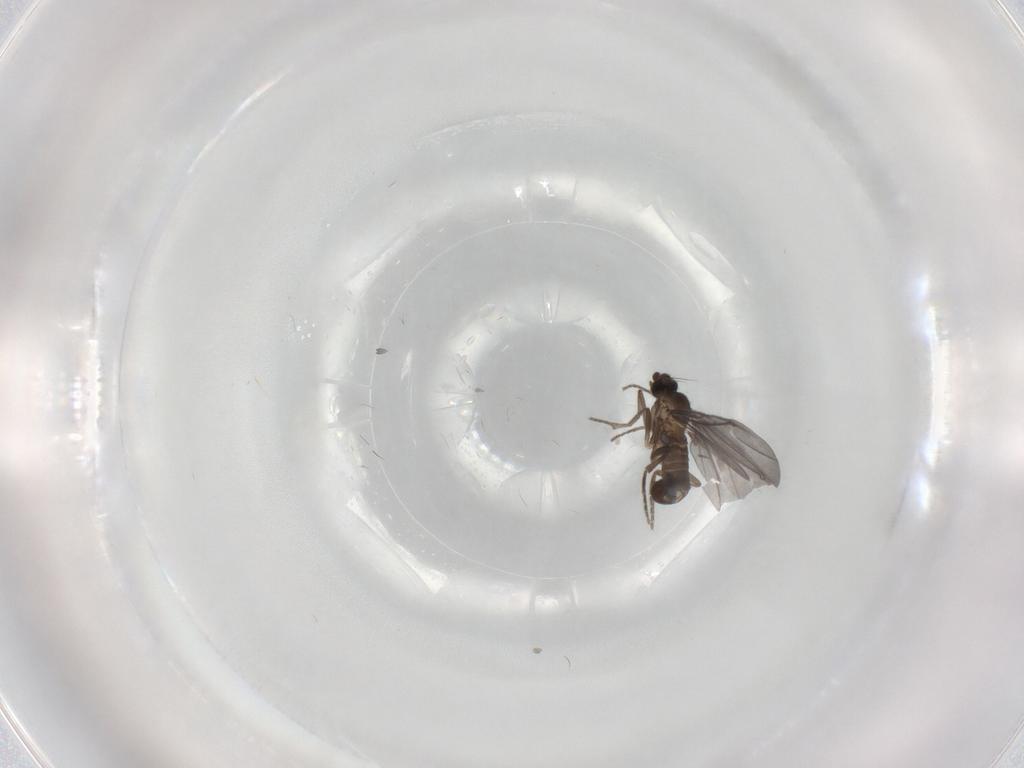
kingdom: Animalia
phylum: Arthropoda
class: Insecta
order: Diptera
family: Phoridae
